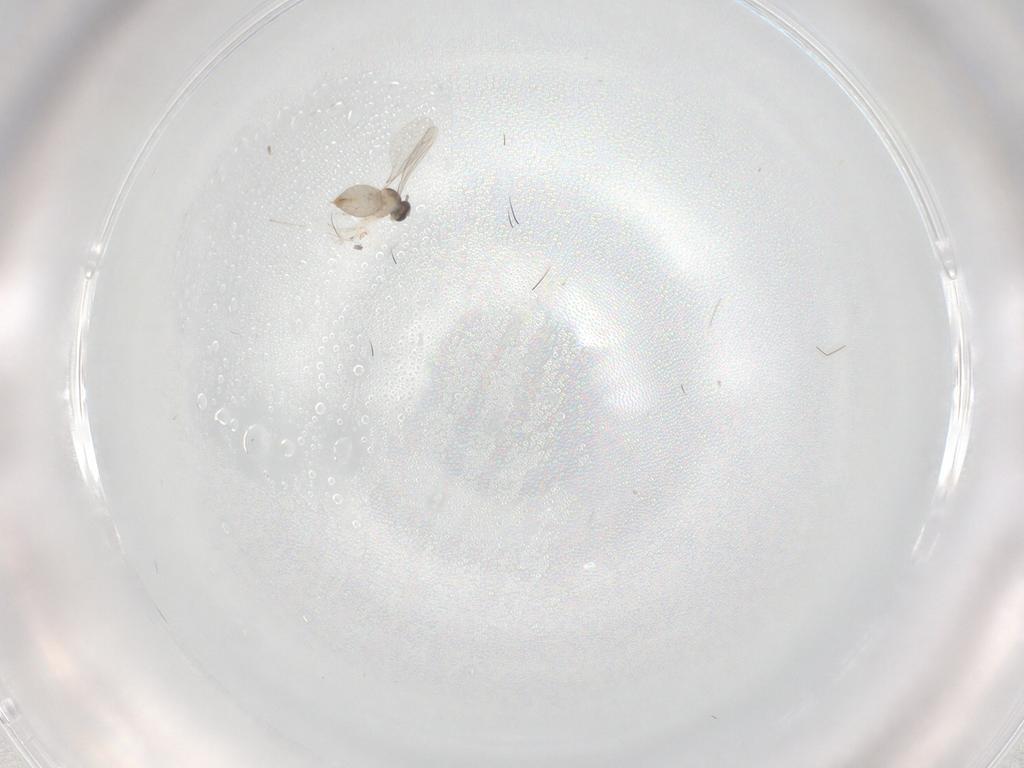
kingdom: Animalia
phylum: Arthropoda
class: Insecta
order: Diptera
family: Cecidomyiidae
